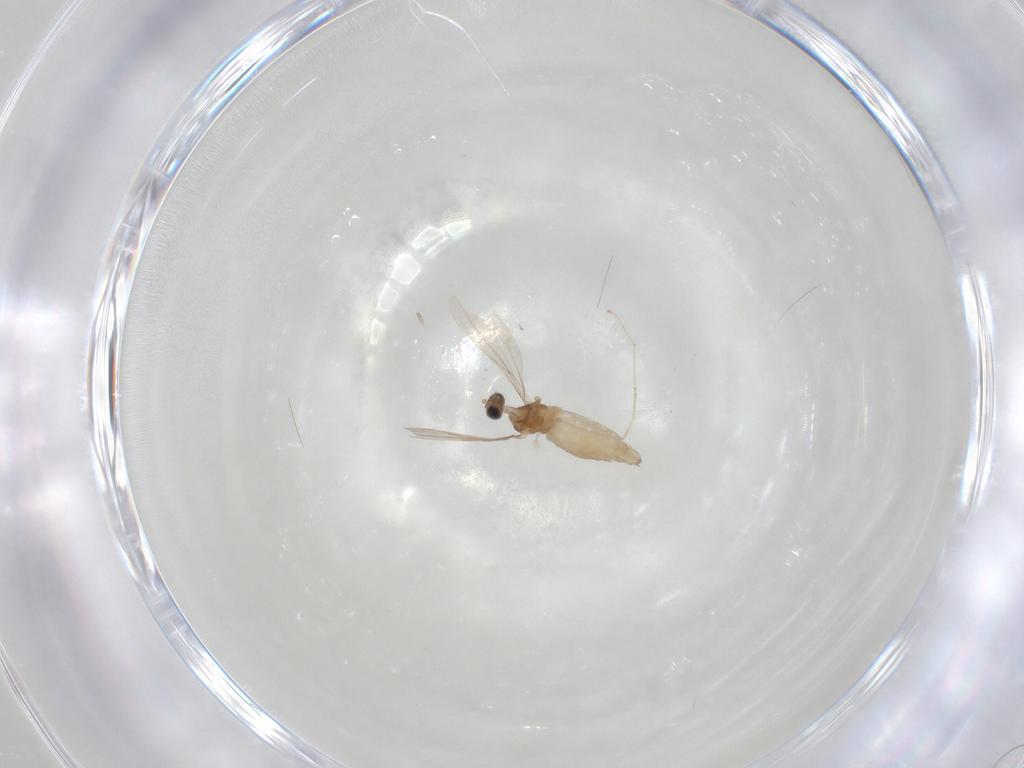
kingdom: Animalia
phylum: Arthropoda
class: Insecta
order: Diptera
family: Cecidomyiidae
